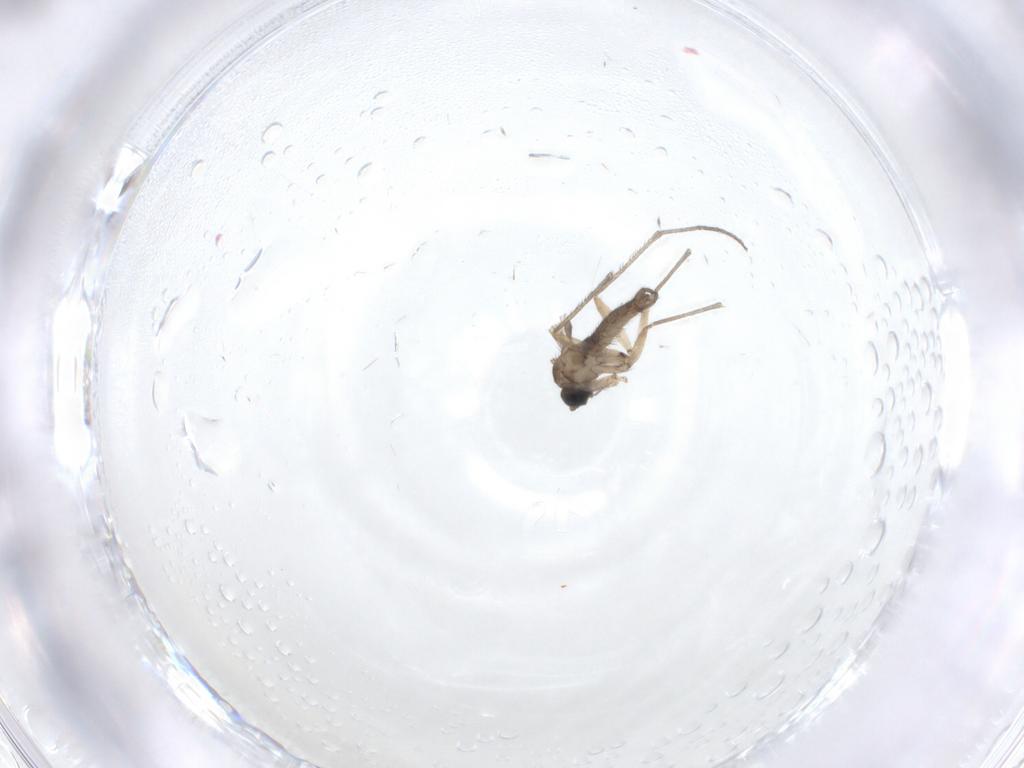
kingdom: Animalia
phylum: Arthropoda
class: Insecta
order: Diptera
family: Sciaridae
